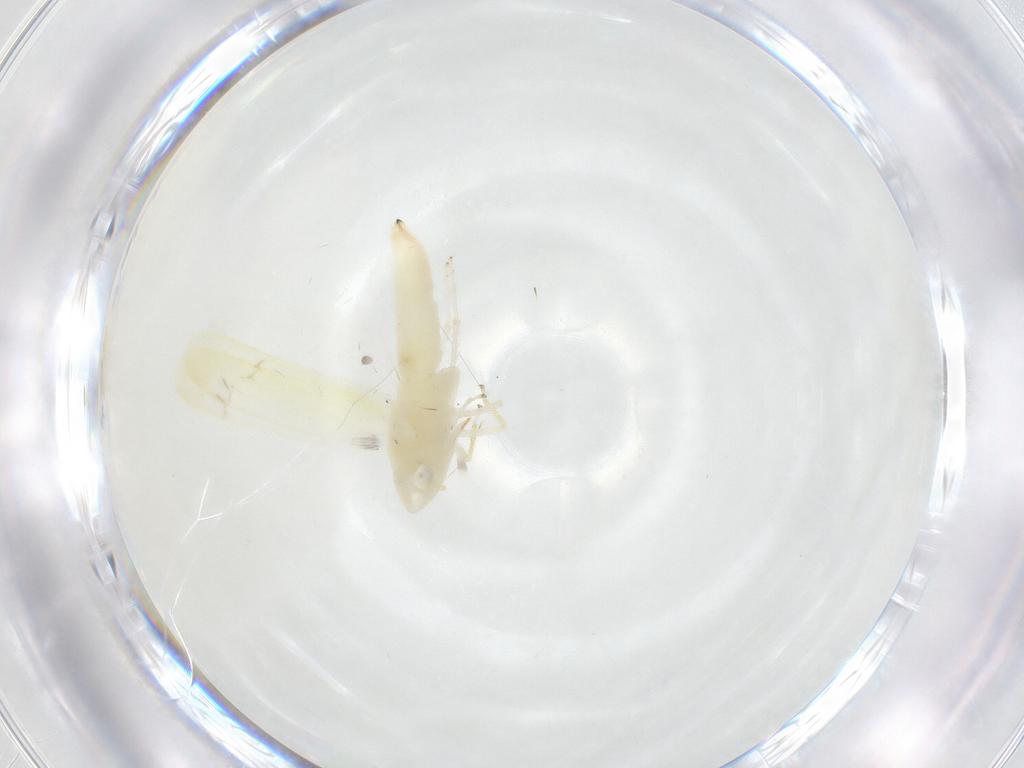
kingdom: Animalia
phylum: Arthropoda
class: Insecta
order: Hemiptera
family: Cicadellidae
